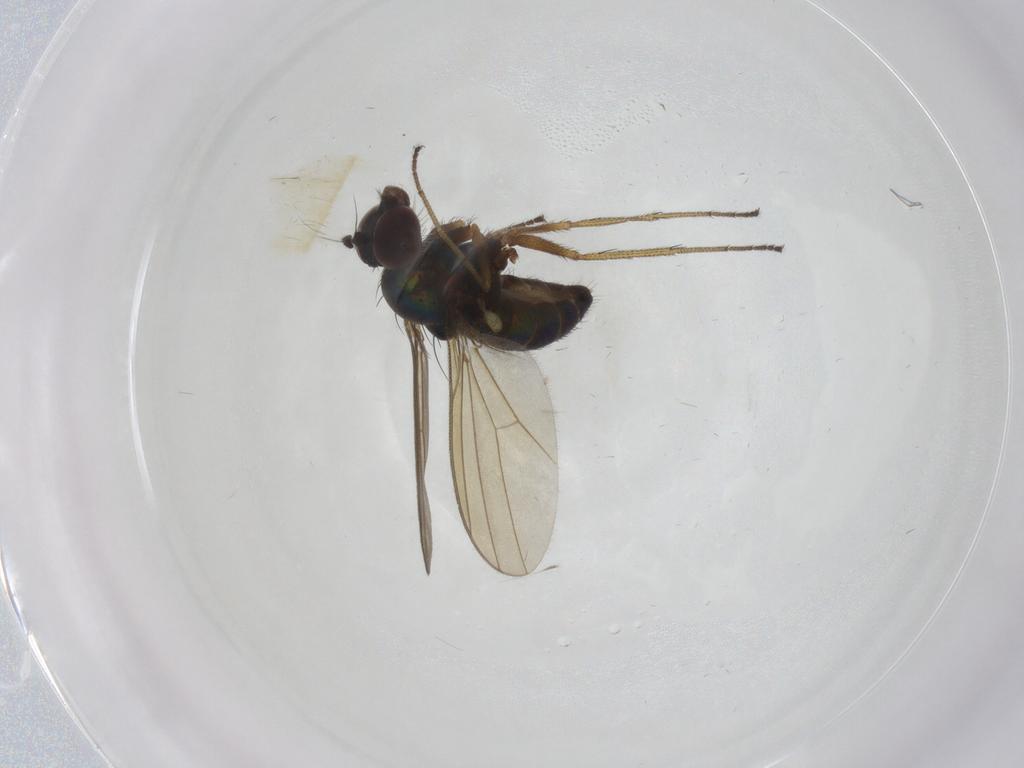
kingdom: Animalia
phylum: Arthropoda
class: Insecta
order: Diptera
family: Dolichopodidae
